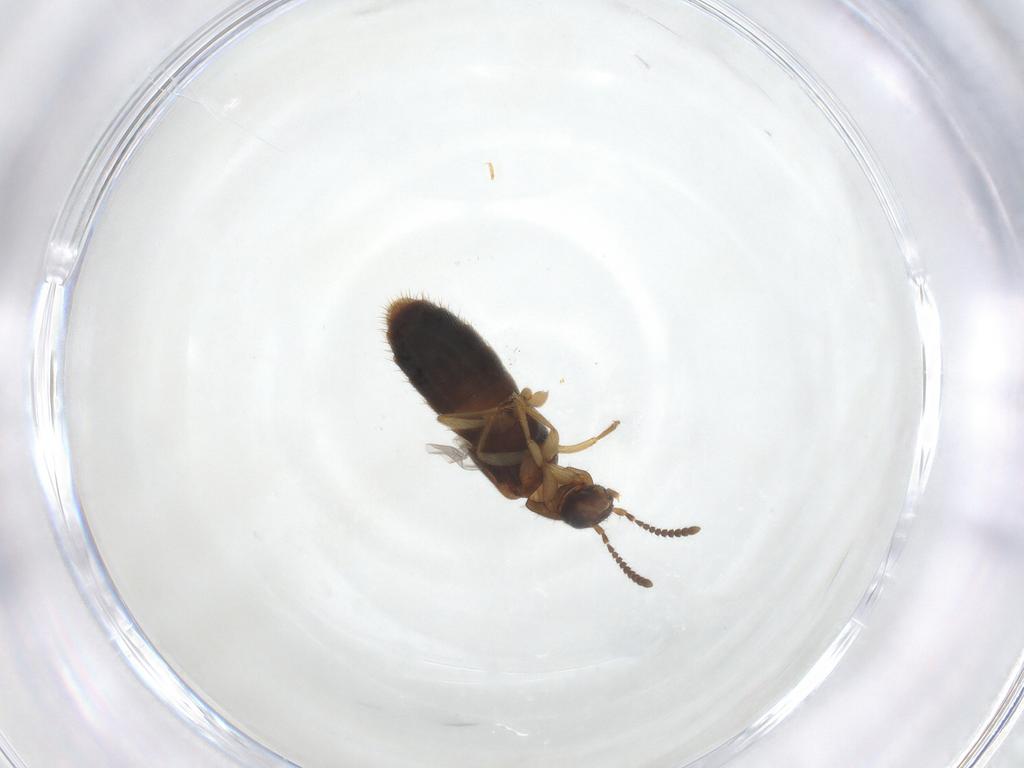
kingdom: Animalia
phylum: Arthropoda
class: Insecta
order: Coleoptera
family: Staphylinidae
